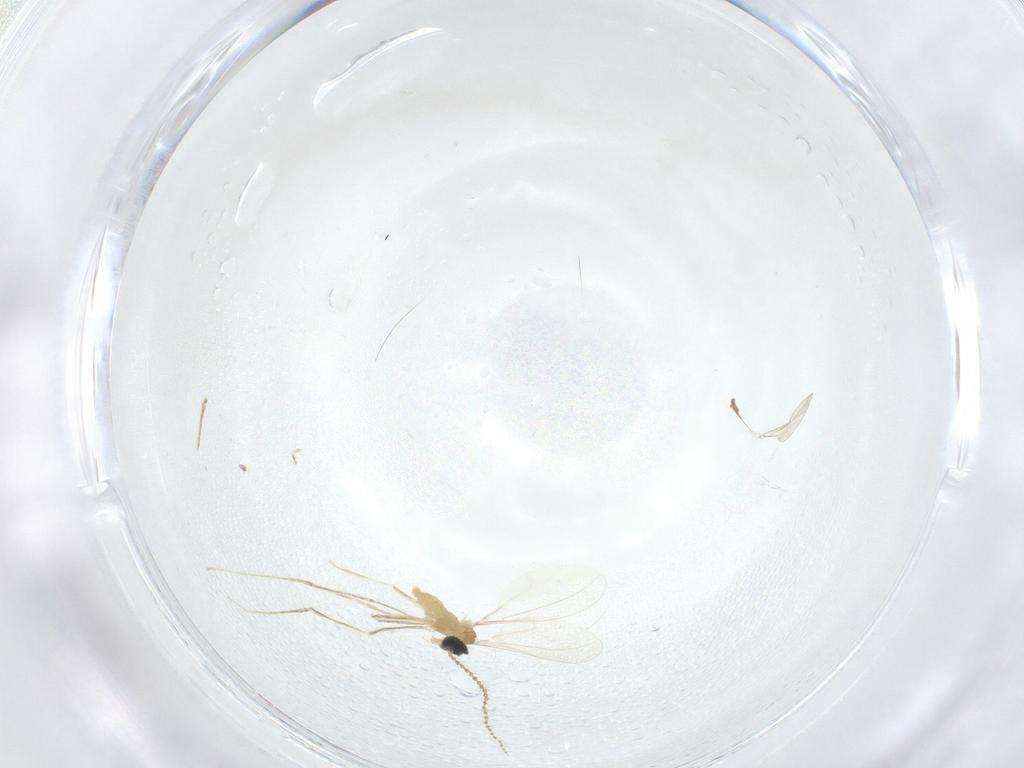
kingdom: Animalia
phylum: Arthropoda
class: Insecta
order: Diptera
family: Cecidomyiidae
